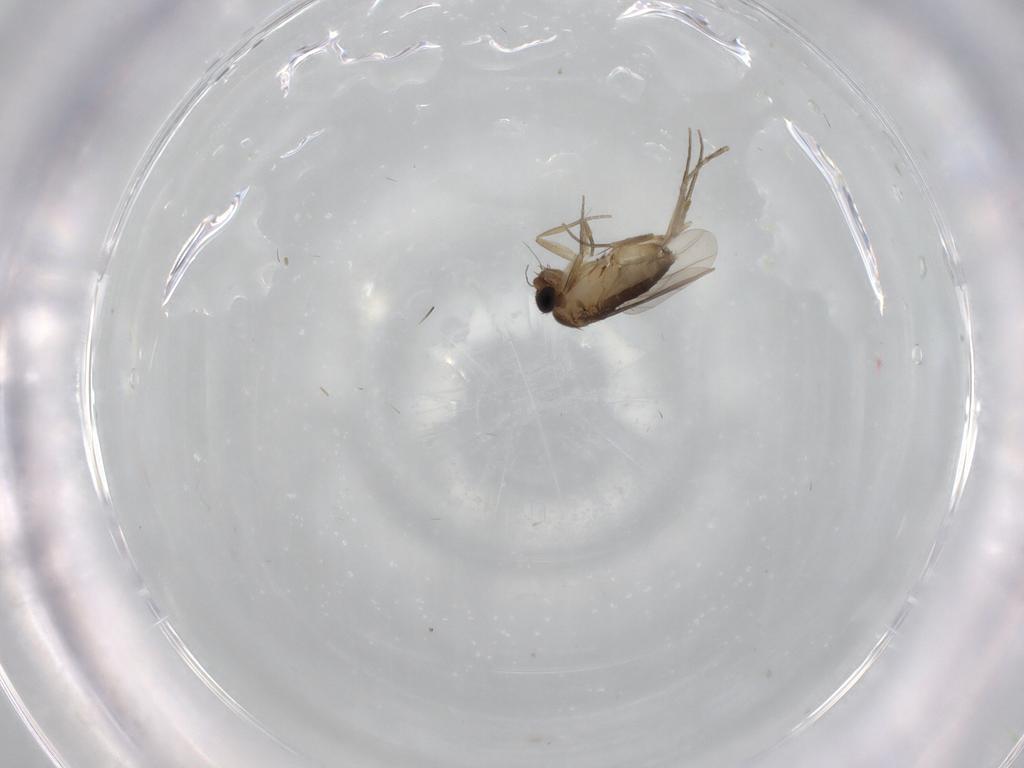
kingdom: Animalia
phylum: Arthropoda
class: Insecta
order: Diptera
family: Phoridae
